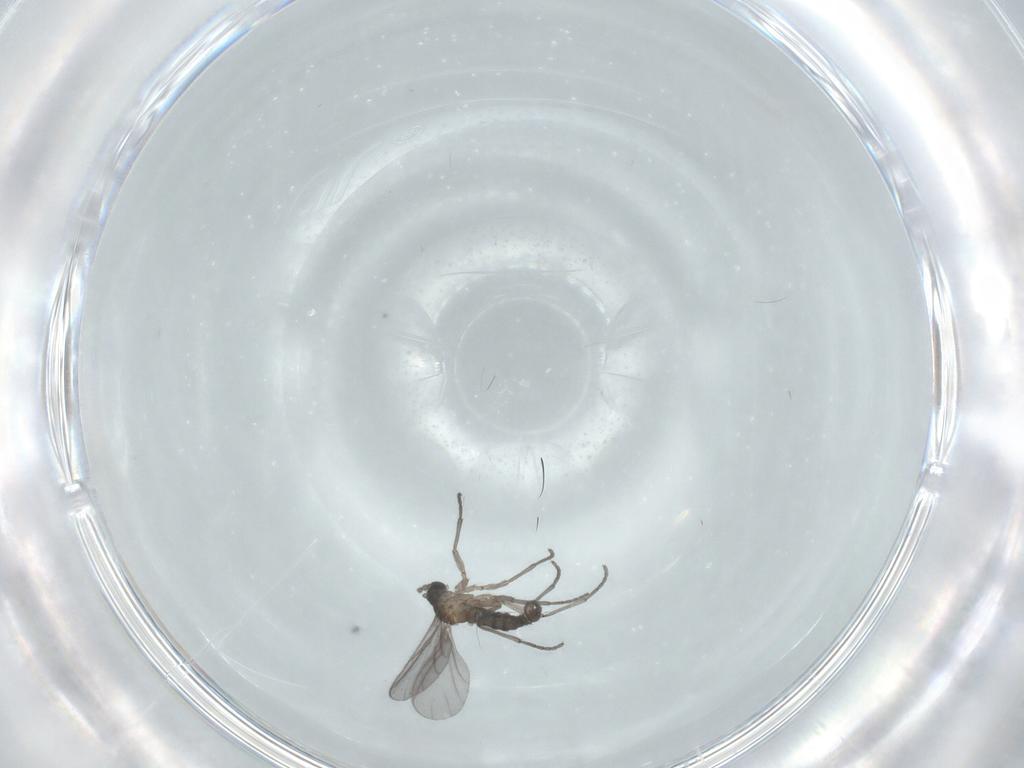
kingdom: Animalia
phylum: Arthropoda
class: Insecta
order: Diptera
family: Sciaridae
